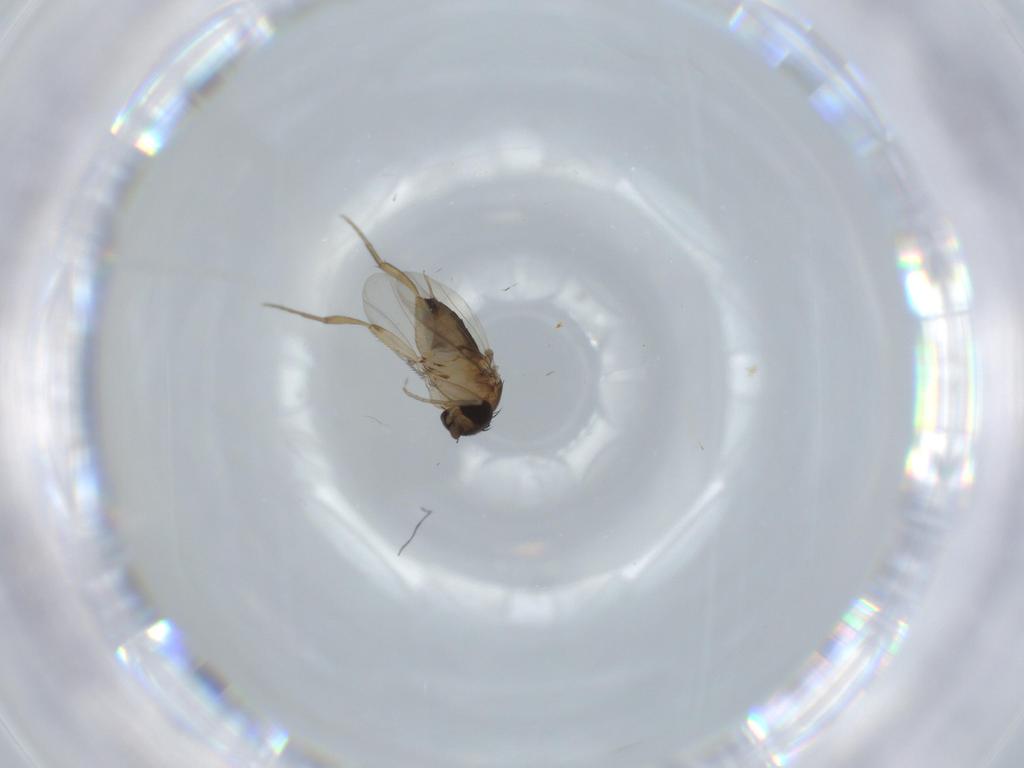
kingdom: Animalia
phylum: Arthropoda
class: Insecta
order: Diptera
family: Phoridae
